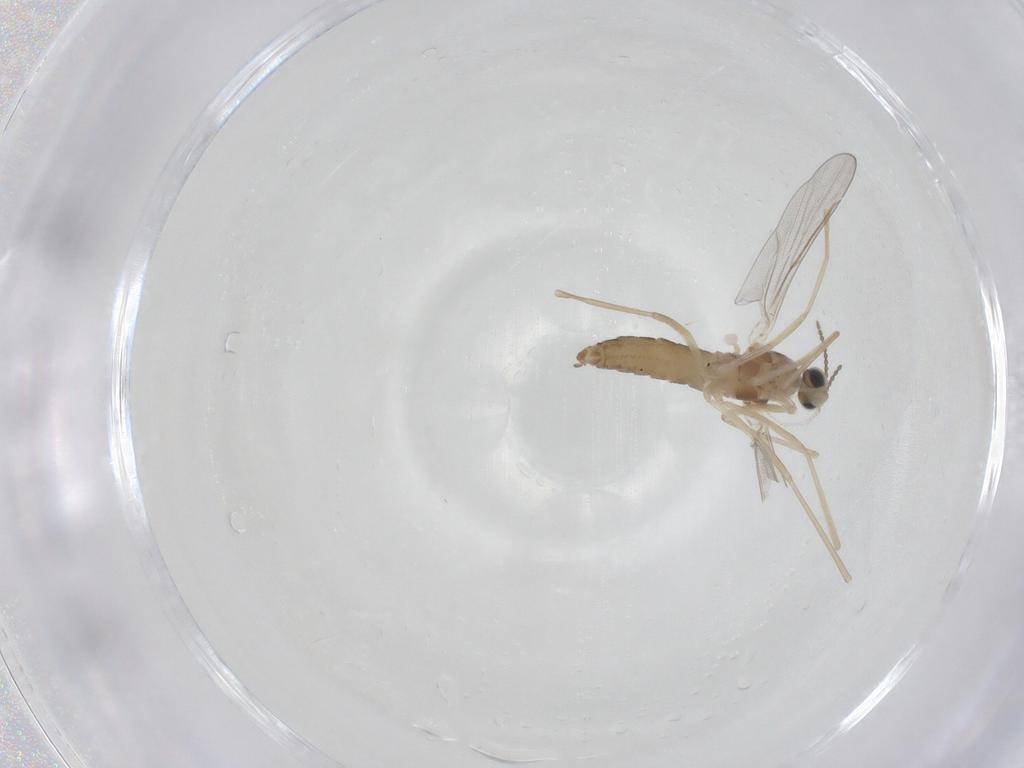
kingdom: Animalia
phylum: Arthropoda
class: Insecta
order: Diptera
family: Cecidomyiidae
